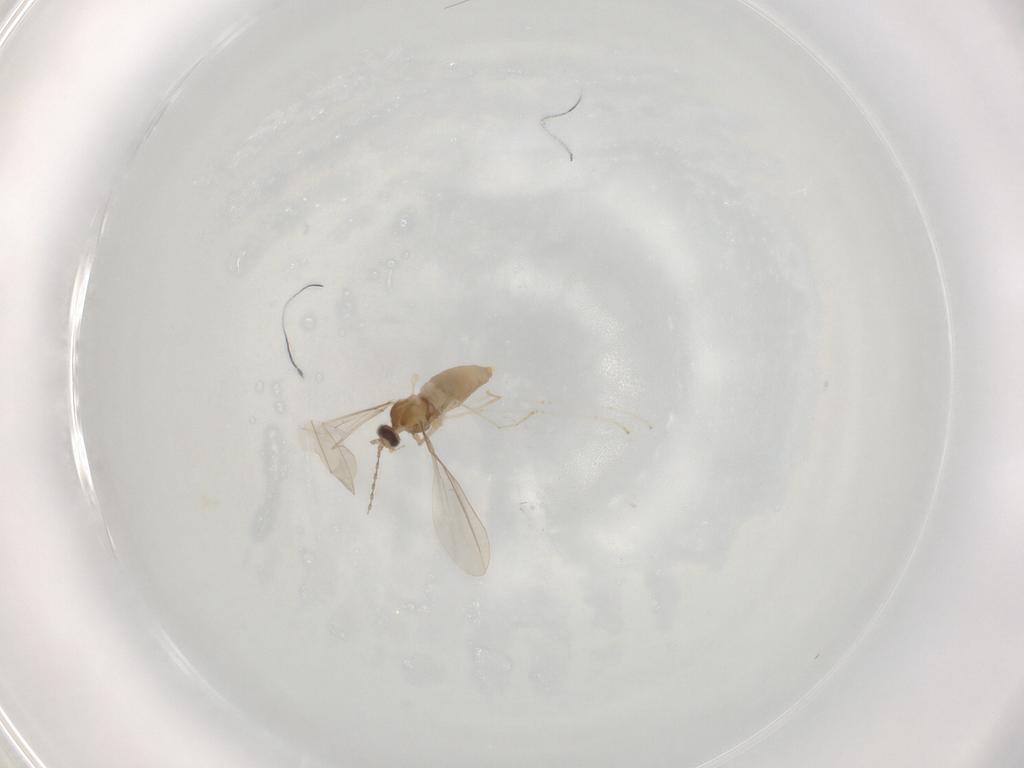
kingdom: Animalia
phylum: Arthropoda
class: Insecta
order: Diptera
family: Cecidomyiidae
